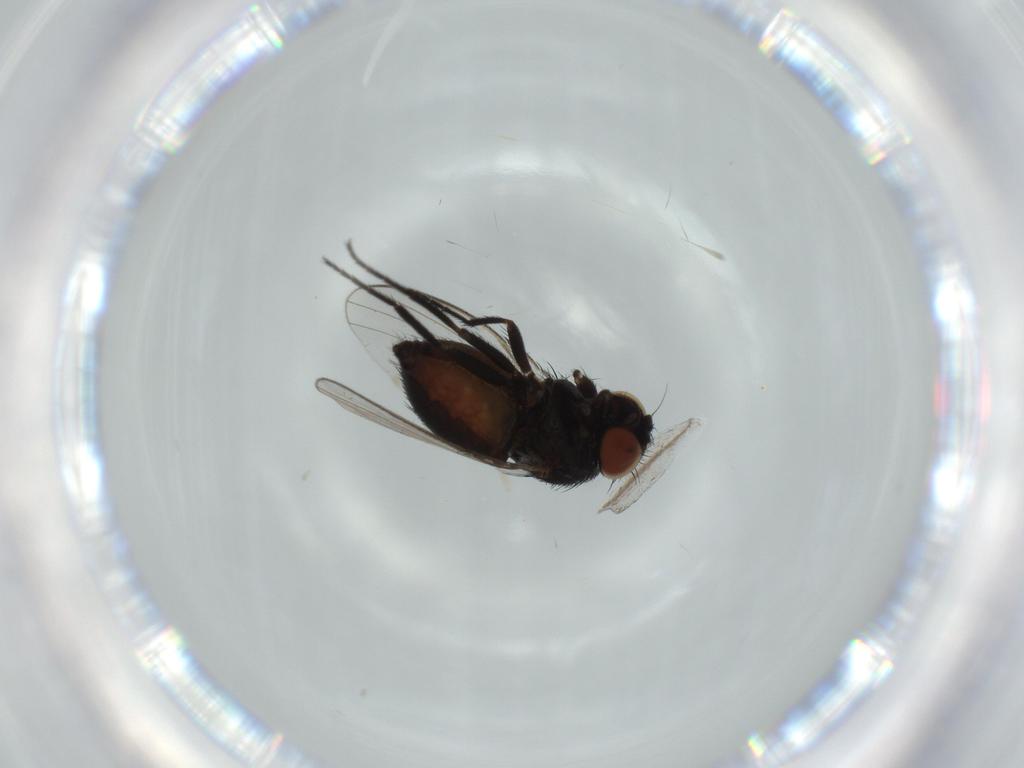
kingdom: Animalia
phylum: Arthropoda
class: Insecta
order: Diptera
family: Milichiidae
